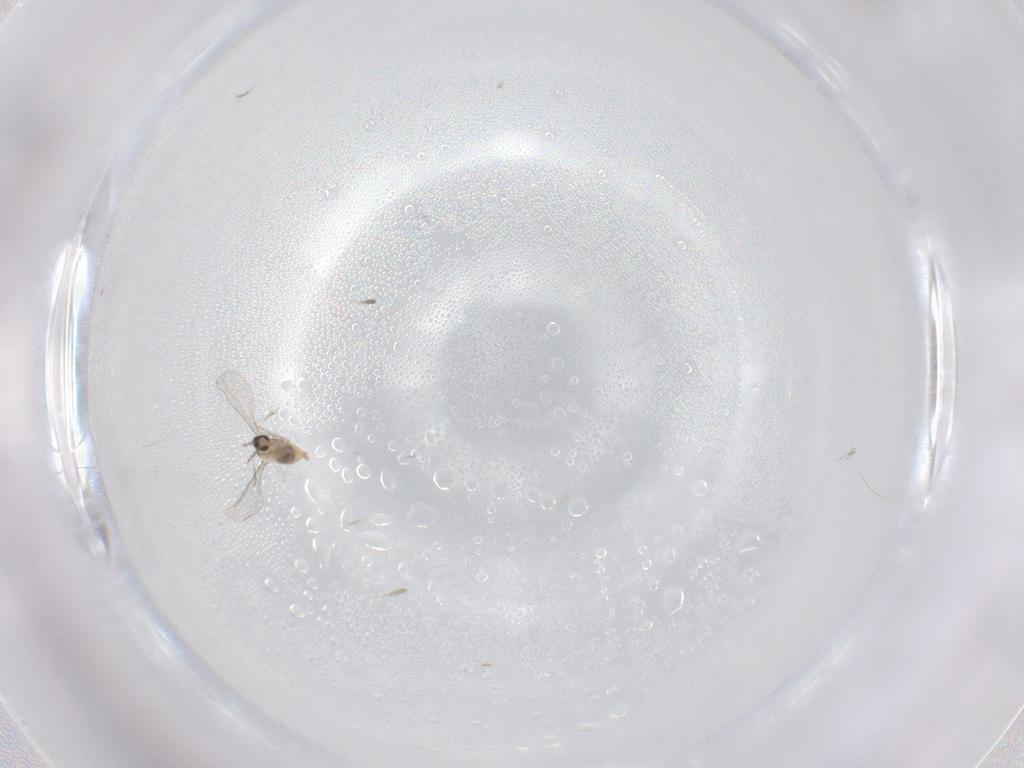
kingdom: Animalia
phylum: Arthropoda
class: Insecta
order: Diptera
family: Cecidomyiidae
